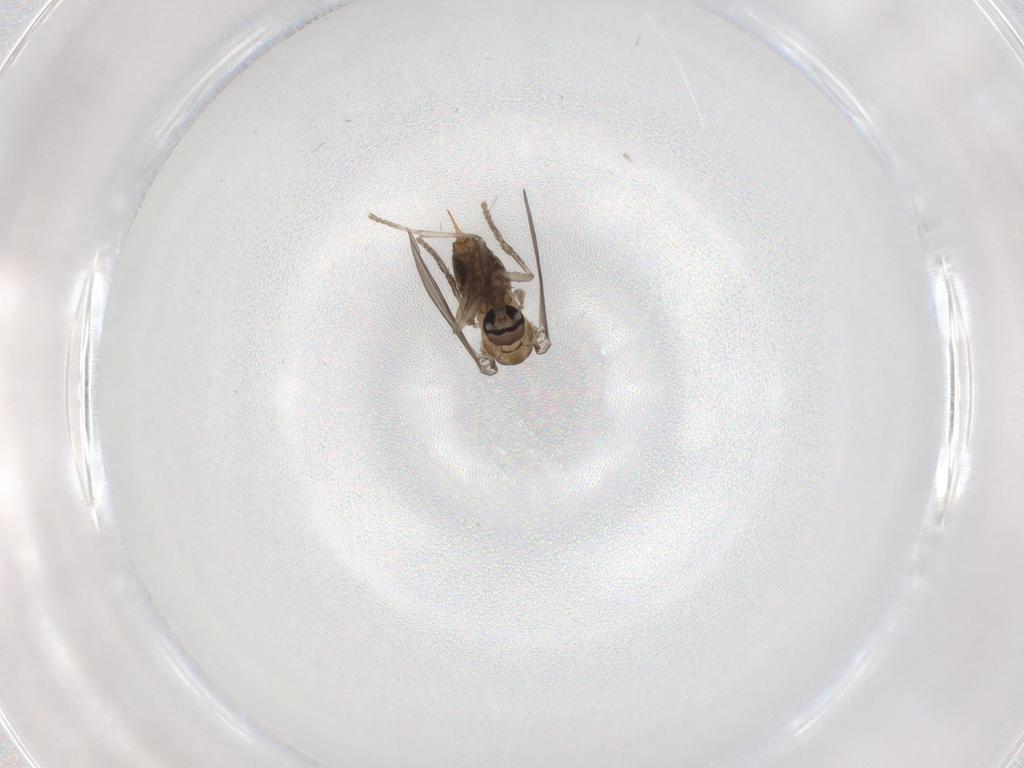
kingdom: Animalia
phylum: Arthropoda
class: Insecta
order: Diptera
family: Psychodidae
